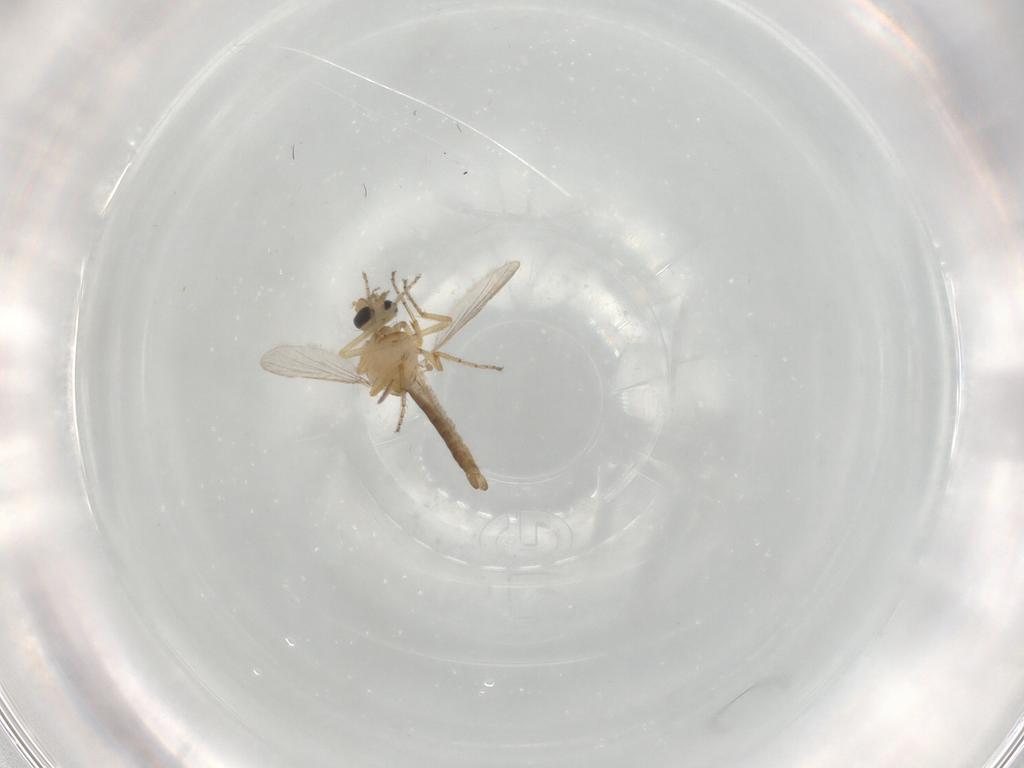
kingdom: Animalia
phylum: Arthropoda
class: Insecta
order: Diptera
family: Ceratopogonidae
